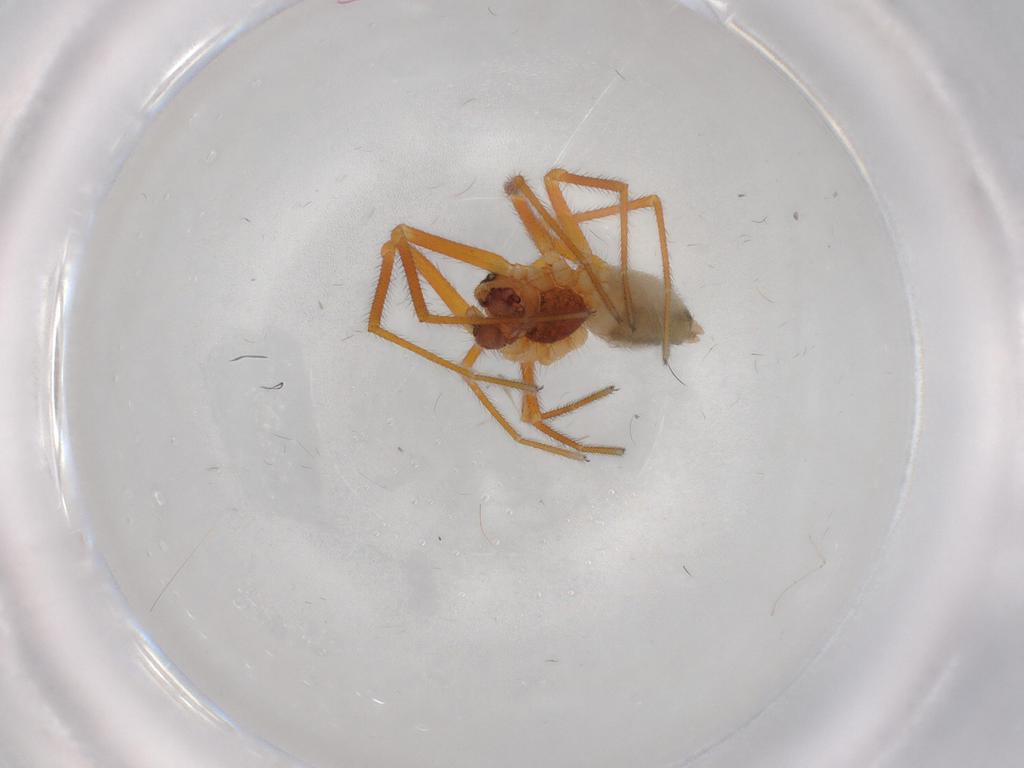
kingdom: Animalia
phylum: Arthropoda
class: Arachnida
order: Araneae
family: Linyphiidae
